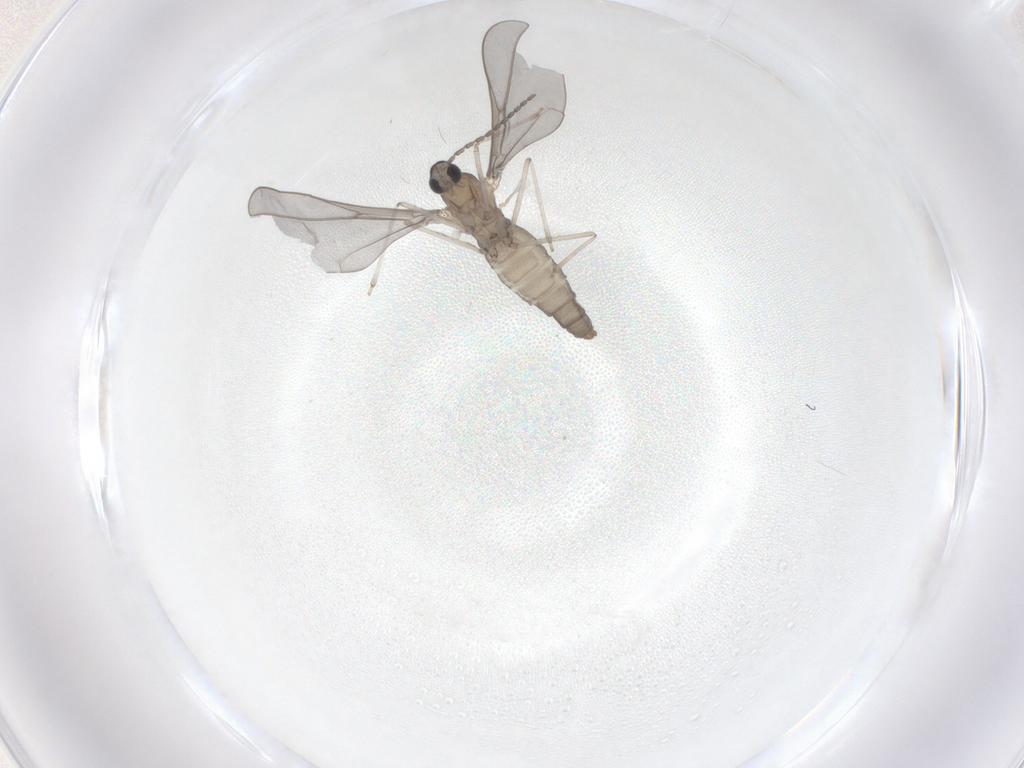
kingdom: Animalia
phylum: Arthropoda
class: Insecta
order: Diptera
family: Cecidomyiidae
